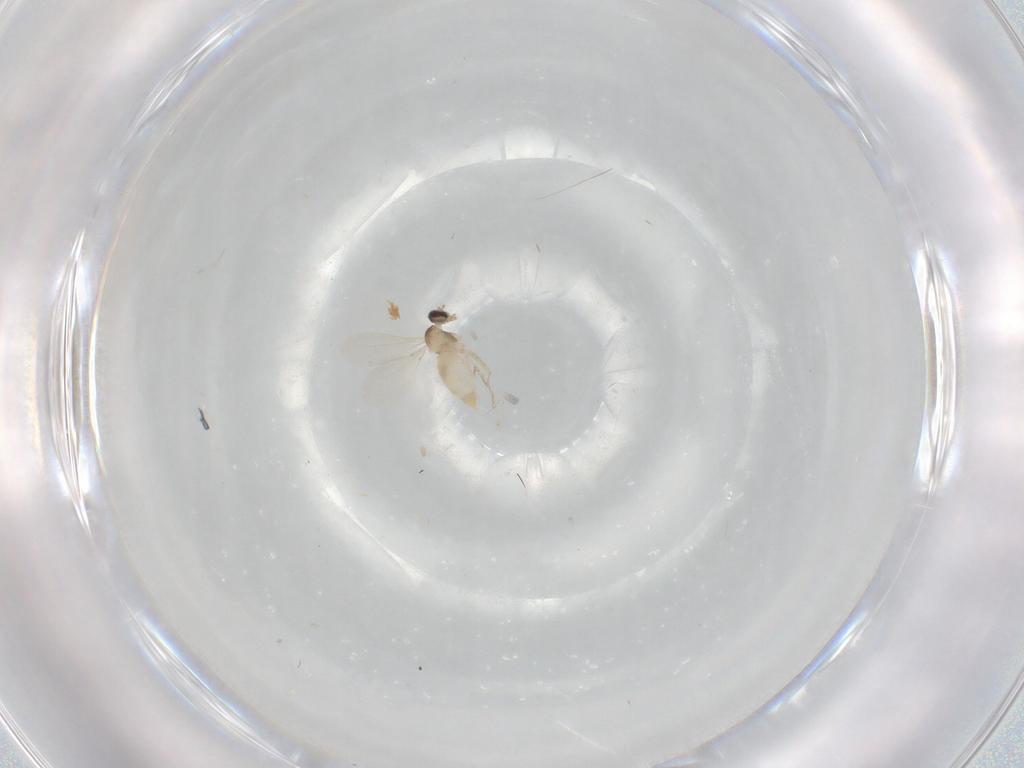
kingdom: Animalia
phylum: Arthropoda
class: Insecta
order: Diptera
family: Cecidomyiidae
